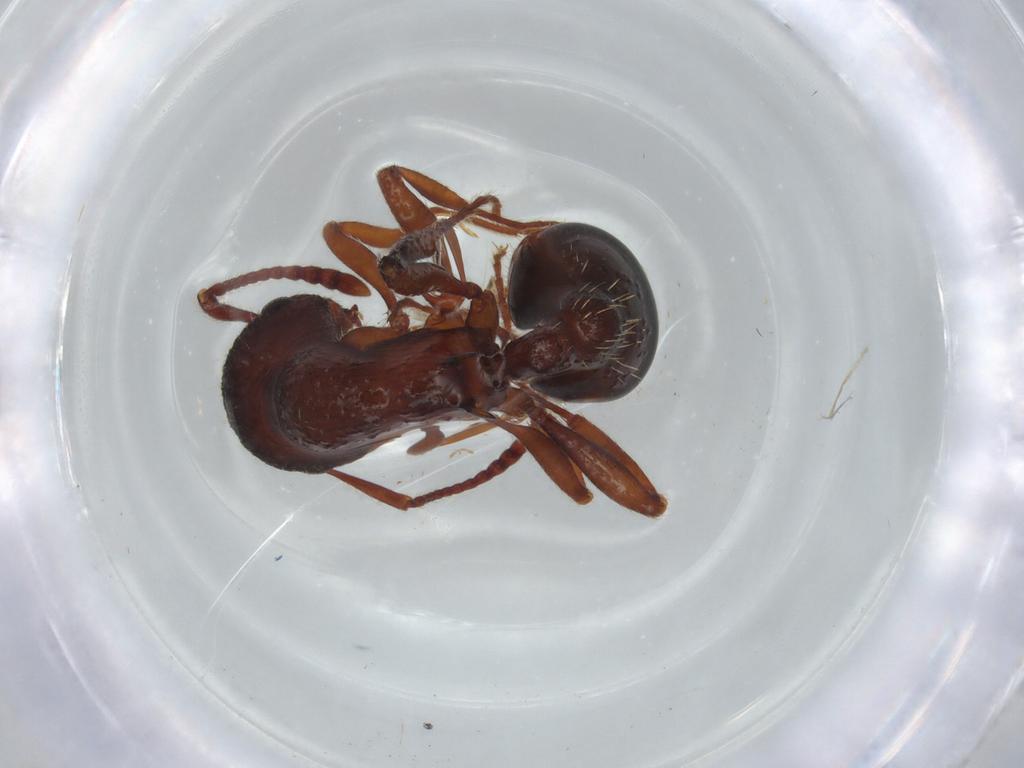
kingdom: Animalia
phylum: Arthropoda
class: Insecta
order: Hymenoptera
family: Formicidae
